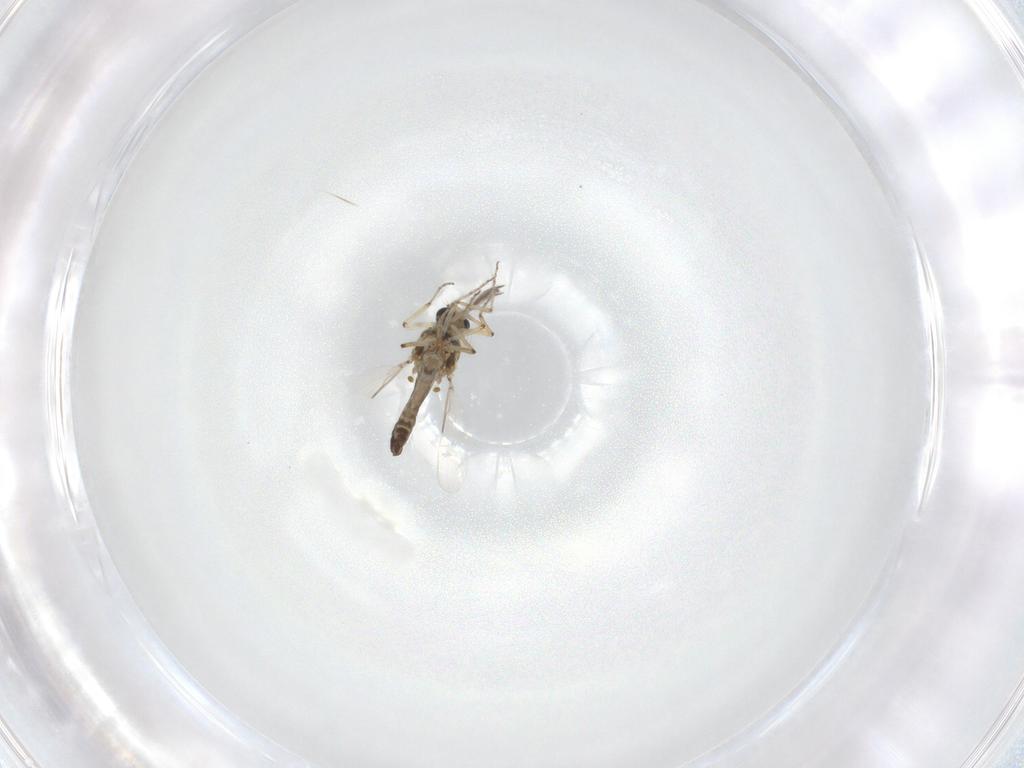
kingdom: Animalia
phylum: Arthropoda
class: Insecta
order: Diptera
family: Ceratopogonidae
